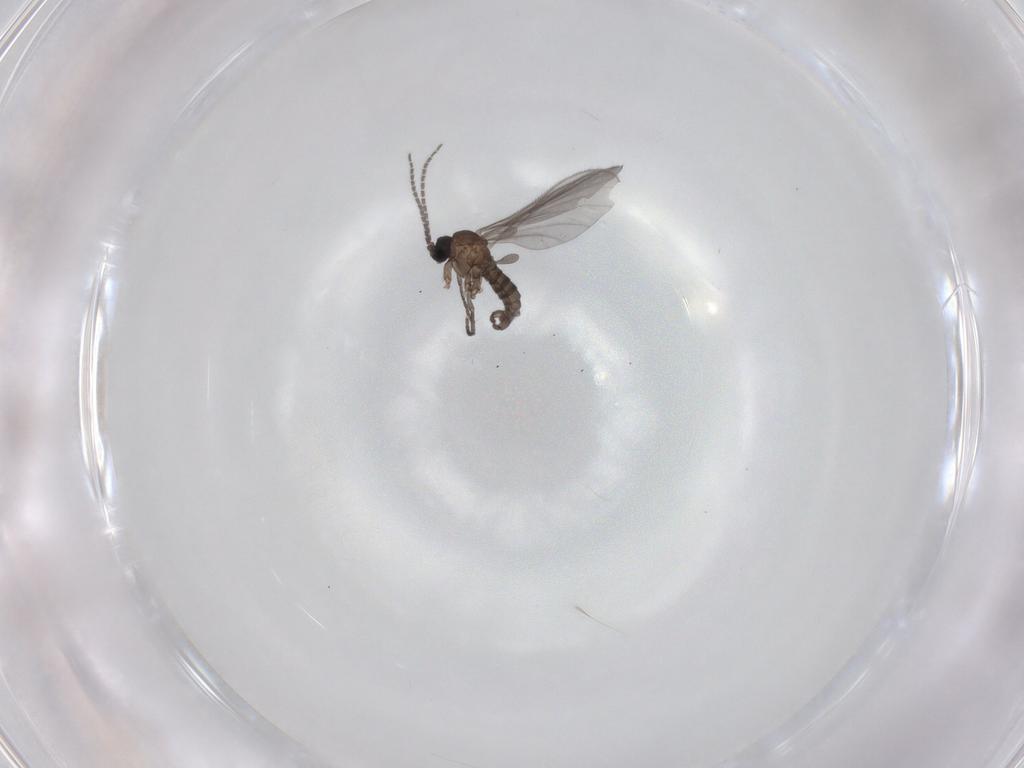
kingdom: Animalia
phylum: Arthropoda
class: Insecta
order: Diptera
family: Sciaridae
